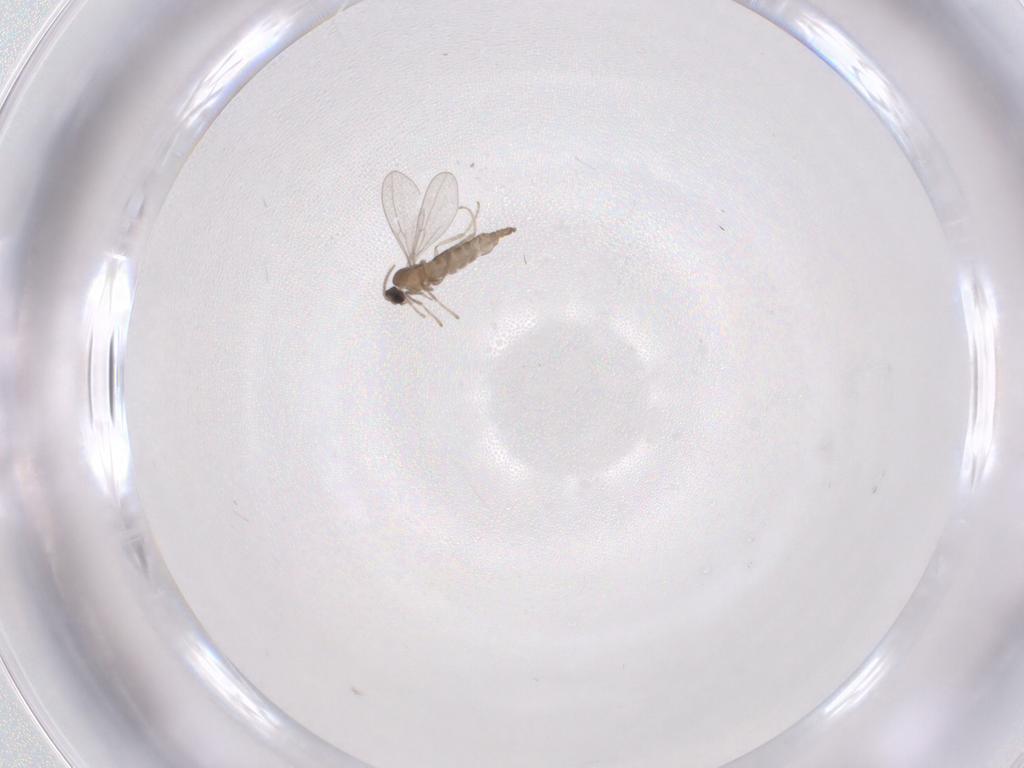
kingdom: Animalia
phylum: Arthropoda
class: Insecta
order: Diptera
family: Cecidomyiidae
